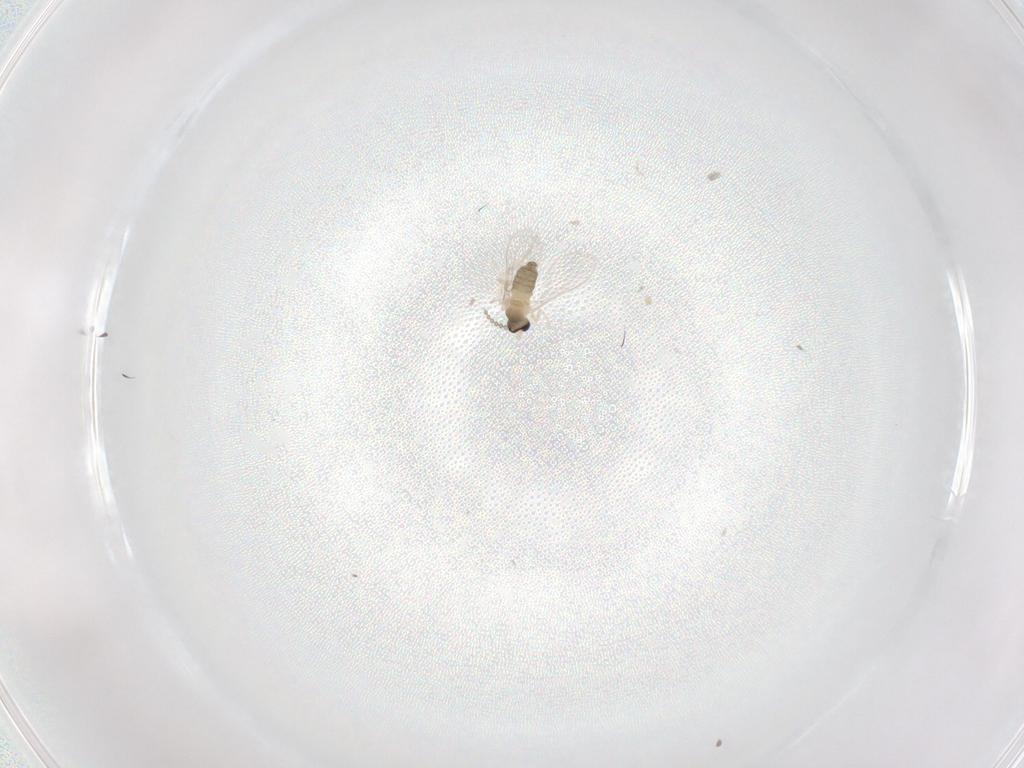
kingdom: Animalia
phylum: Arthropoda
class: Insecta
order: Diptera
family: Cecidomyiidae
